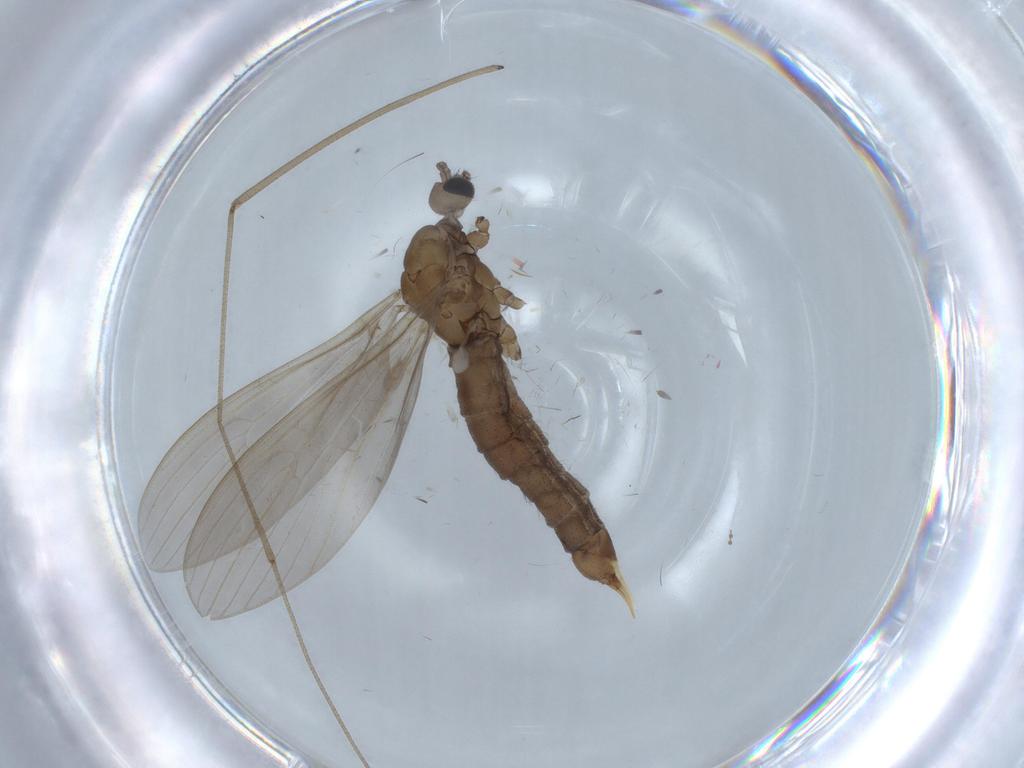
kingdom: Animalia
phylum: Arthropoda
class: Insecta
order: Diptera
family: Limoniidae
